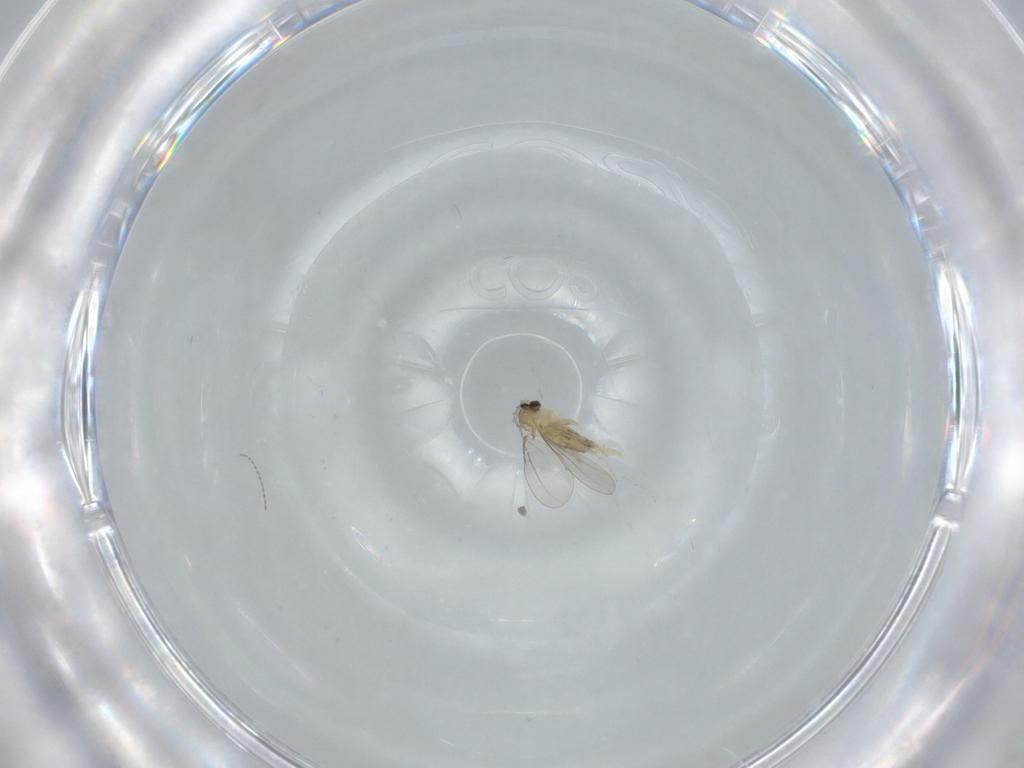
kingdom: Animalia
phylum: Arthropoda
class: Insecta
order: Diptera
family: Cecidomyiidae
